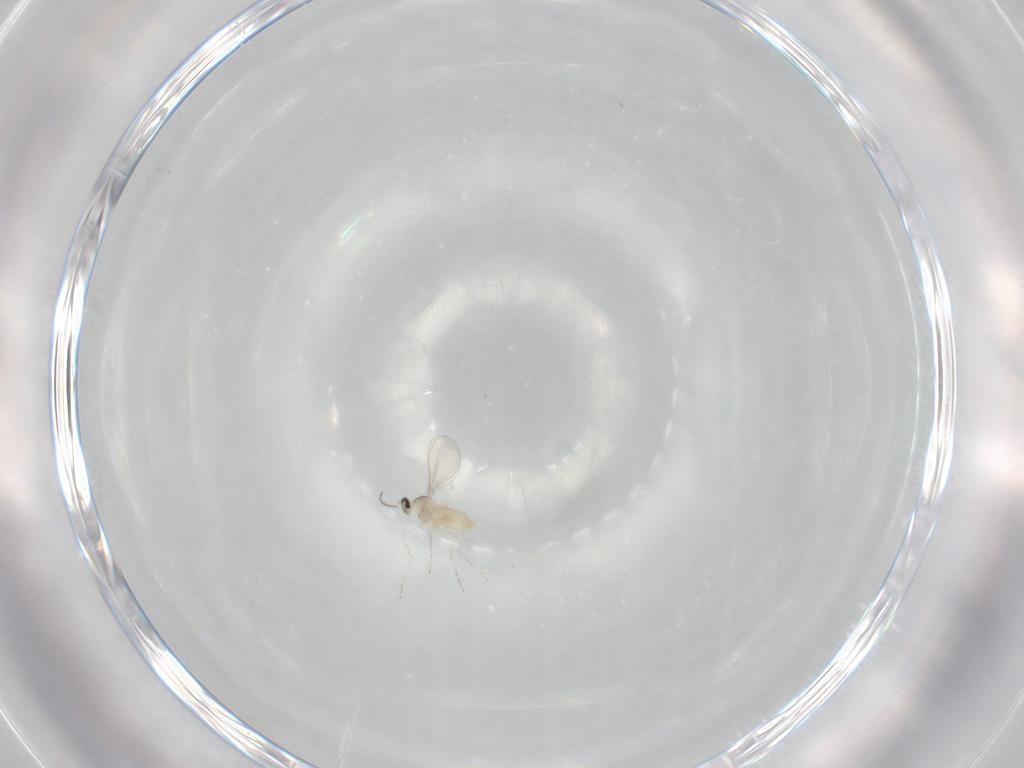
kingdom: Animalia
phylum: Arthropoda
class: Insecta
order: Diptera
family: Cecidomyiidae
